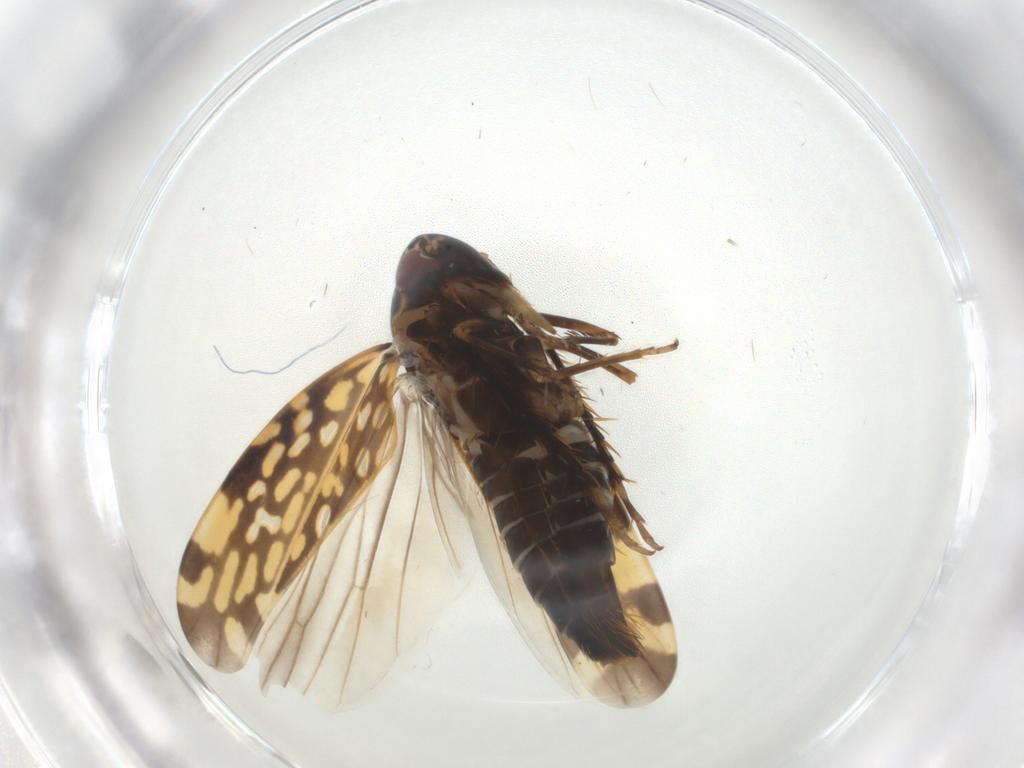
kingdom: Animalia
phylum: Arthropoda
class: Insecta
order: Hemiptera
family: Cicadellidae
